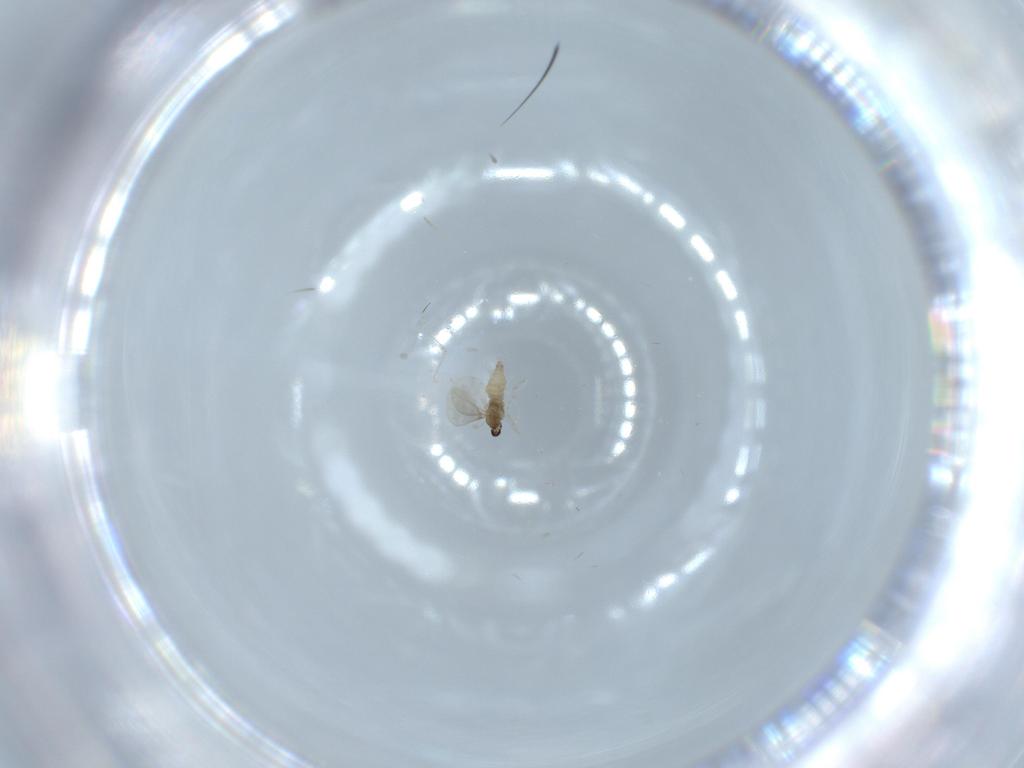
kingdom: Animalia
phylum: Arthropoda
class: Insecta
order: Diptera
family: Cecidomyiidae
